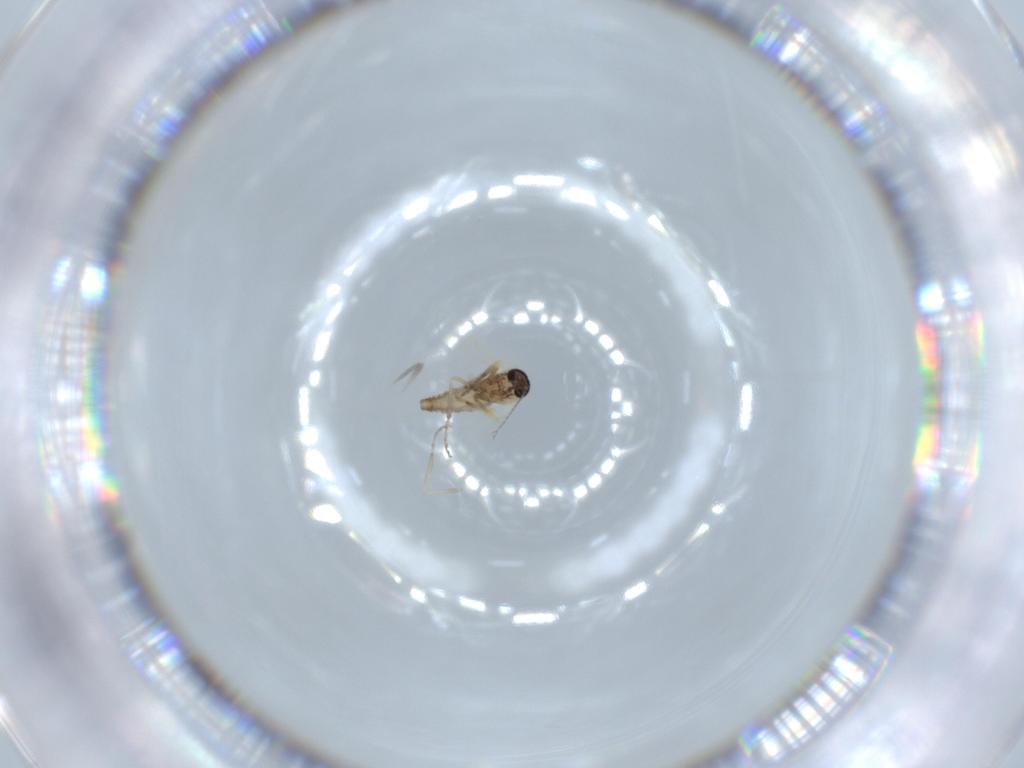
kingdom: Animalia
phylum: Arthropoda
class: Insecta
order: Diptera
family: Ceratopogonidae
